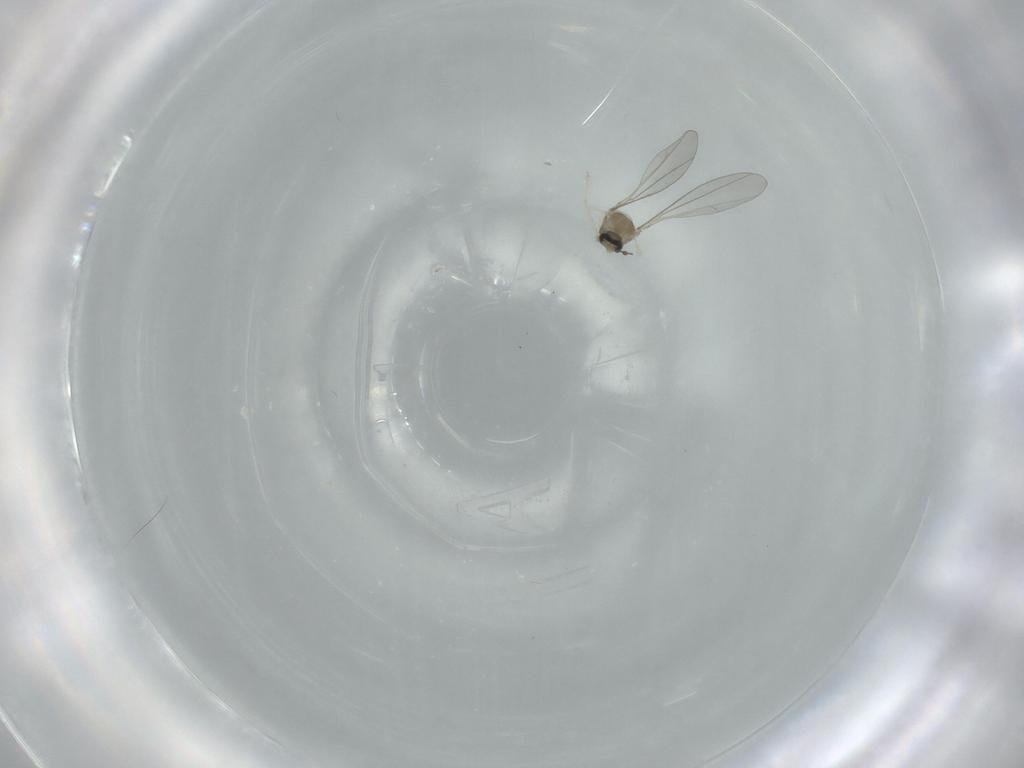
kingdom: Animalia
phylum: Arthropoda
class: Insecta
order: Diptera
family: Cecidomyiidae
